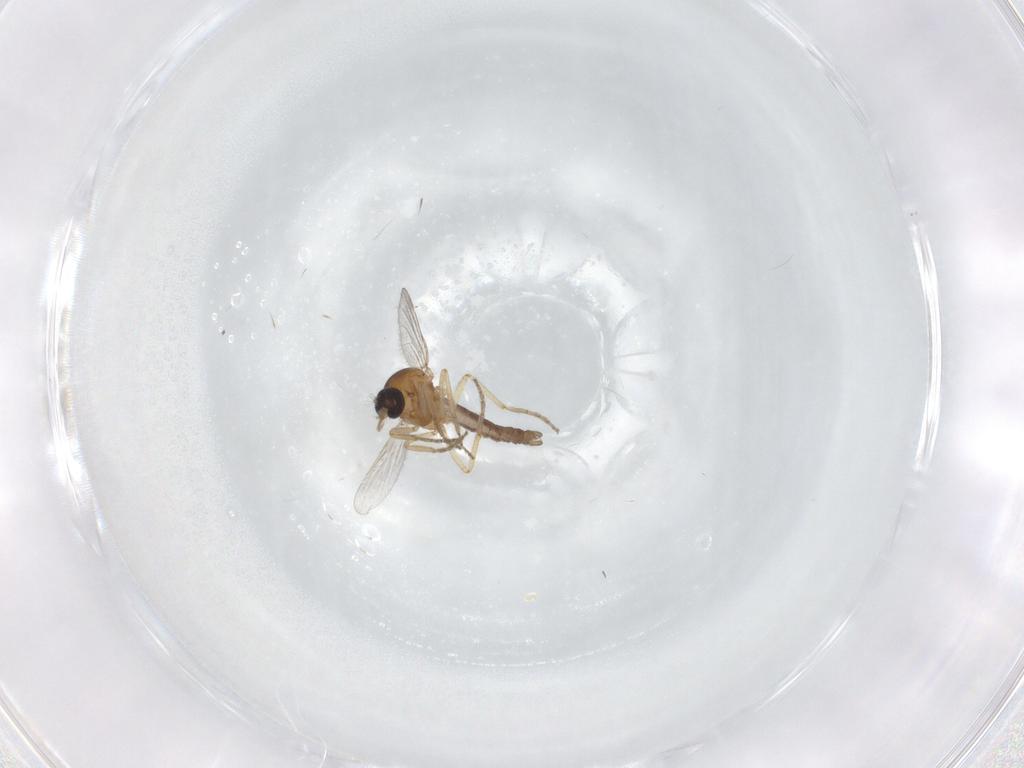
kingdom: Animalia
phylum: Arthropoda
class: Insecta
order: Diptera
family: Ceratopogonidae
